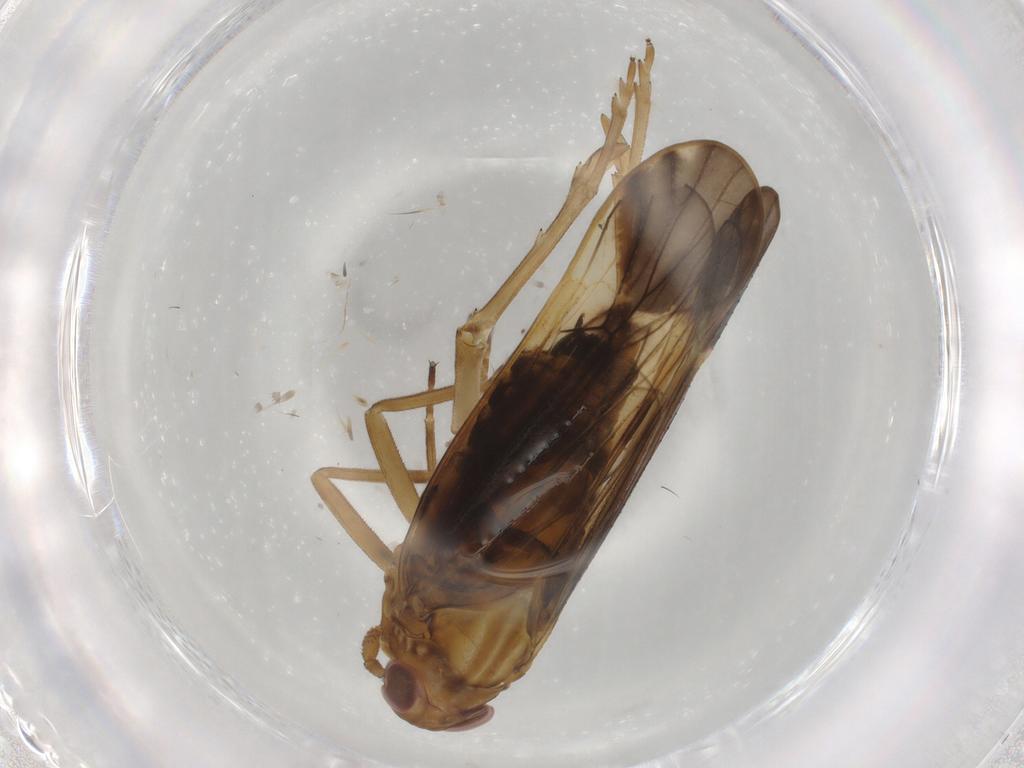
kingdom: Animalia
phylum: Arthropoda
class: Insecta
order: Hemiptera
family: Delphacidae
